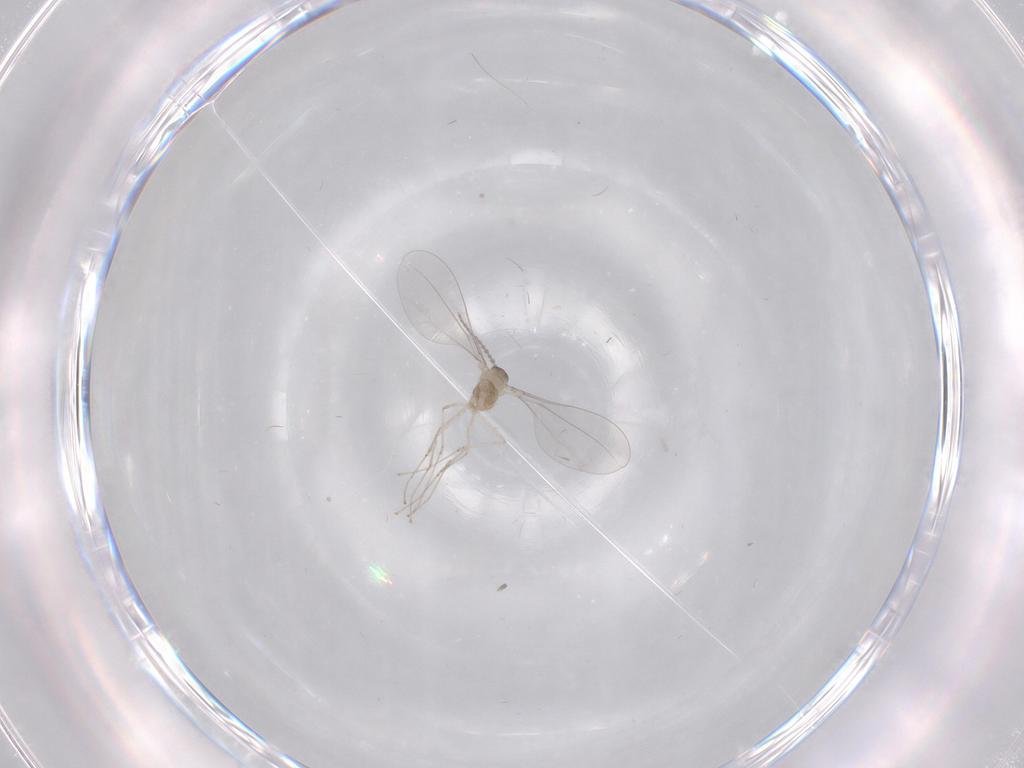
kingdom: Animalia
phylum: Arthropoda
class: Insecta
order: Diptera
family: Cecidomyiidae
